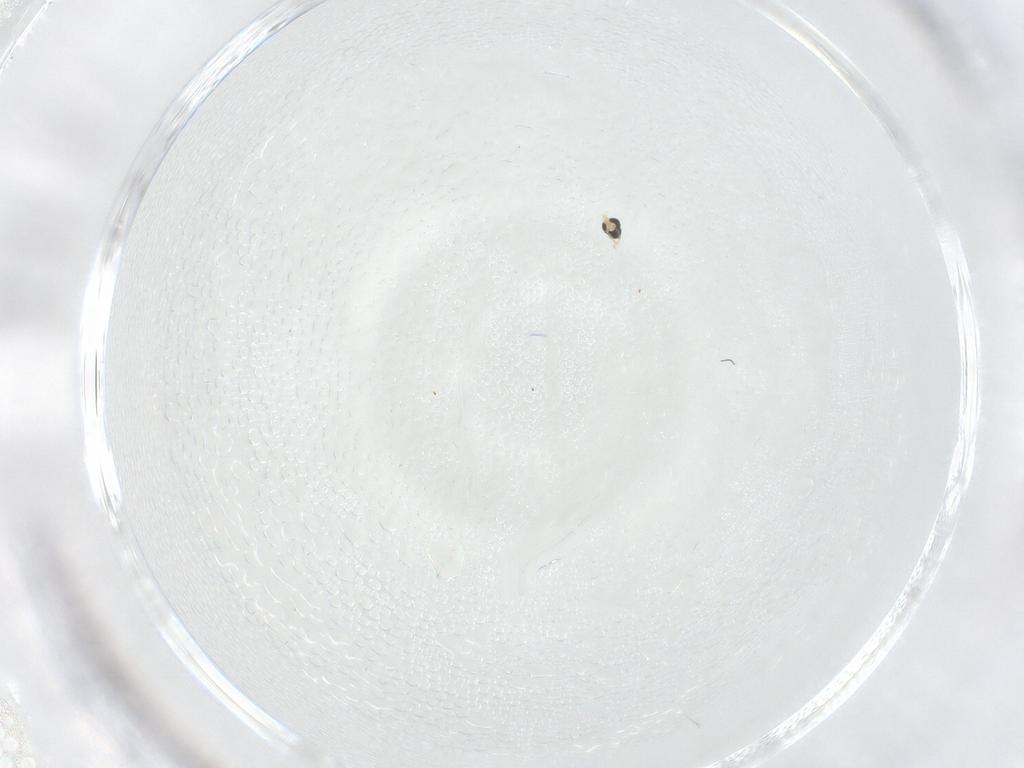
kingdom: Animalia
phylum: Arthropoda
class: Insecta
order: Diptera
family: Cecidomyiidae
